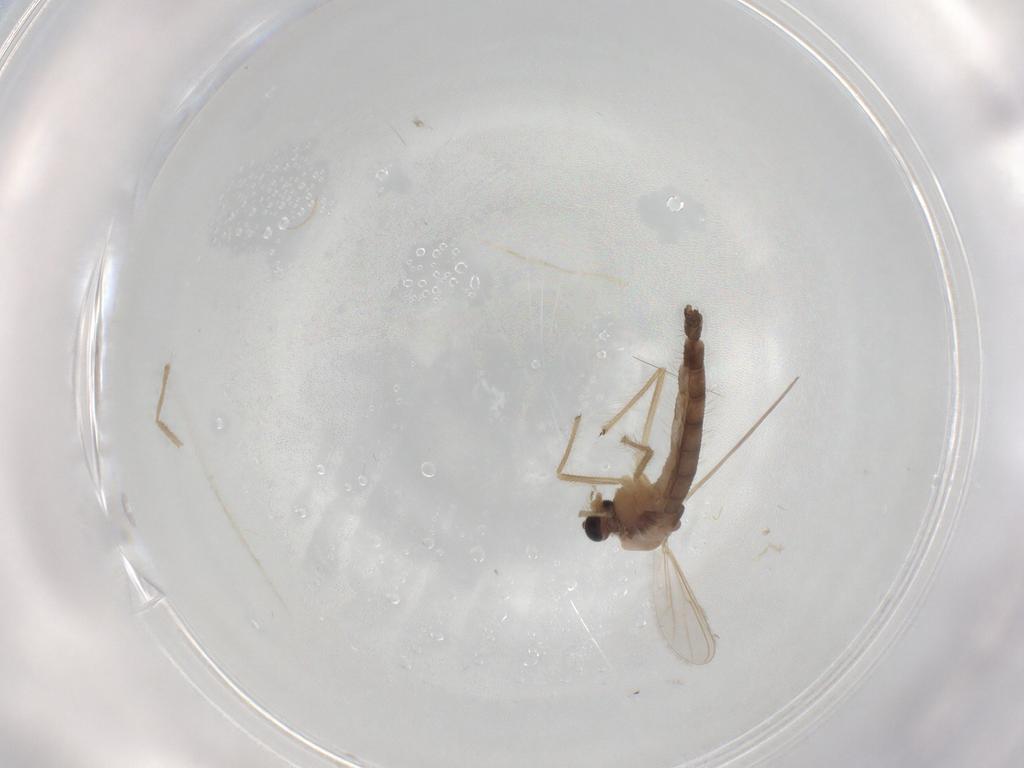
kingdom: Animalia
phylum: Arthropoda
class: Insecta
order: Diptera
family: Chironomidae
